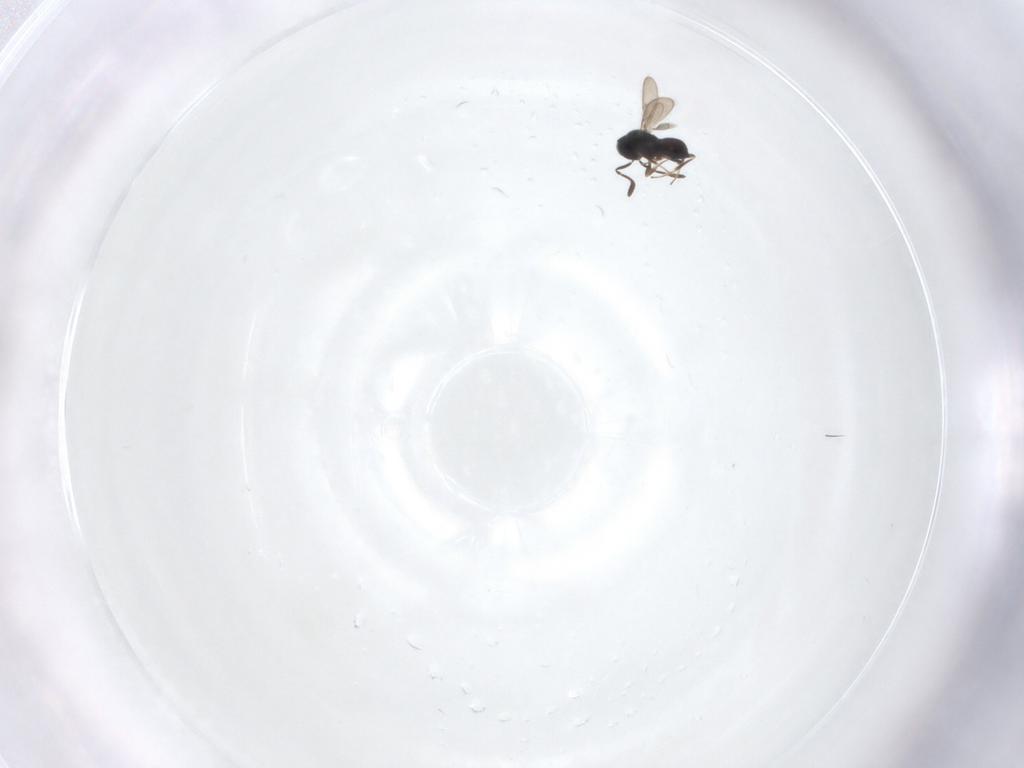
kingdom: Animalia
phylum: Arthropoda
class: Insecta
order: Hymenoptera
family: Scelionidae
